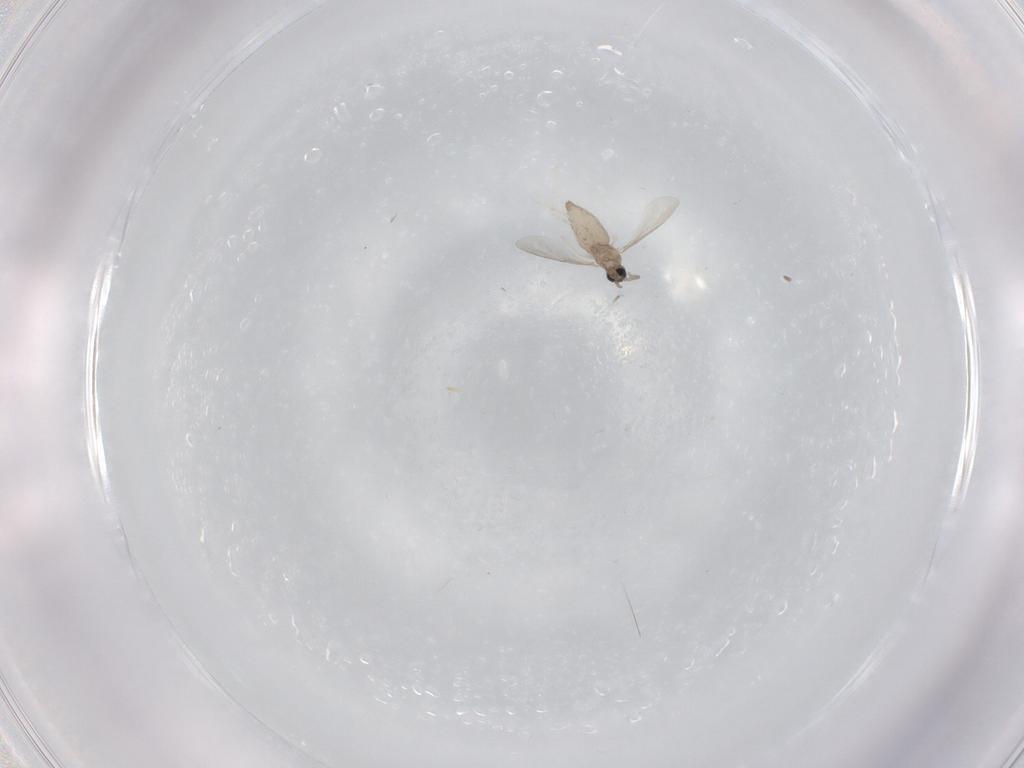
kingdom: Animalia
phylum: Arthropoda
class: Insecta
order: Diptera
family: Cecidomyiidae
